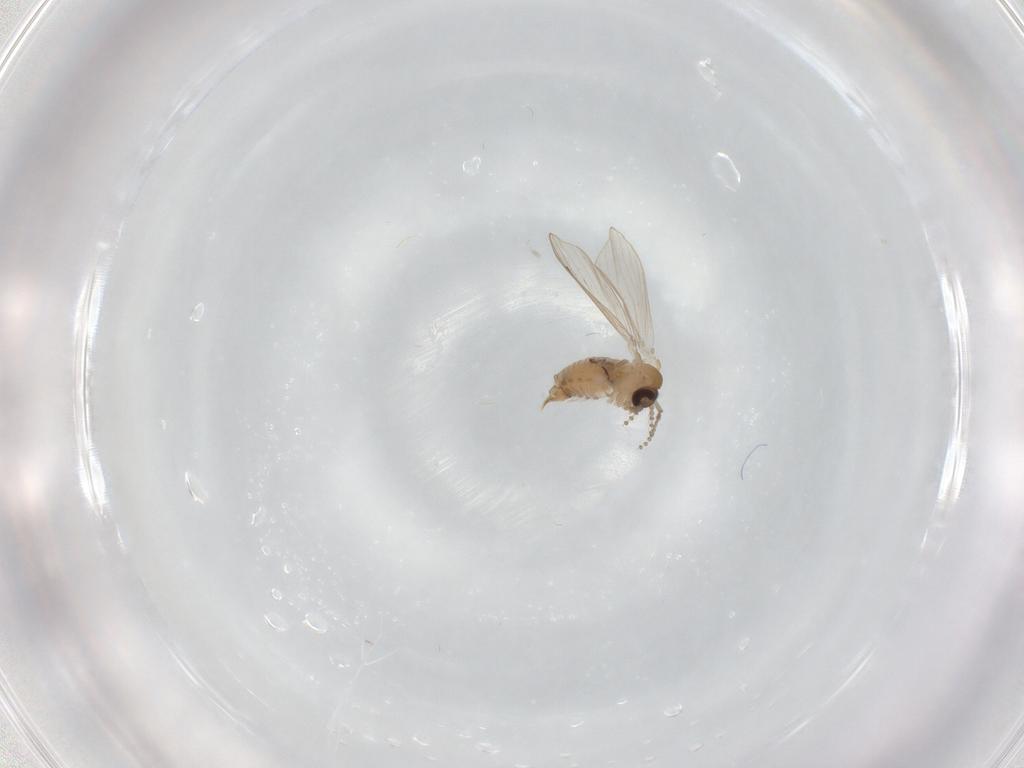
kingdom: Animalia
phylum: Arthropoda
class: Insecta
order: Diptera
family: Psychodidae
